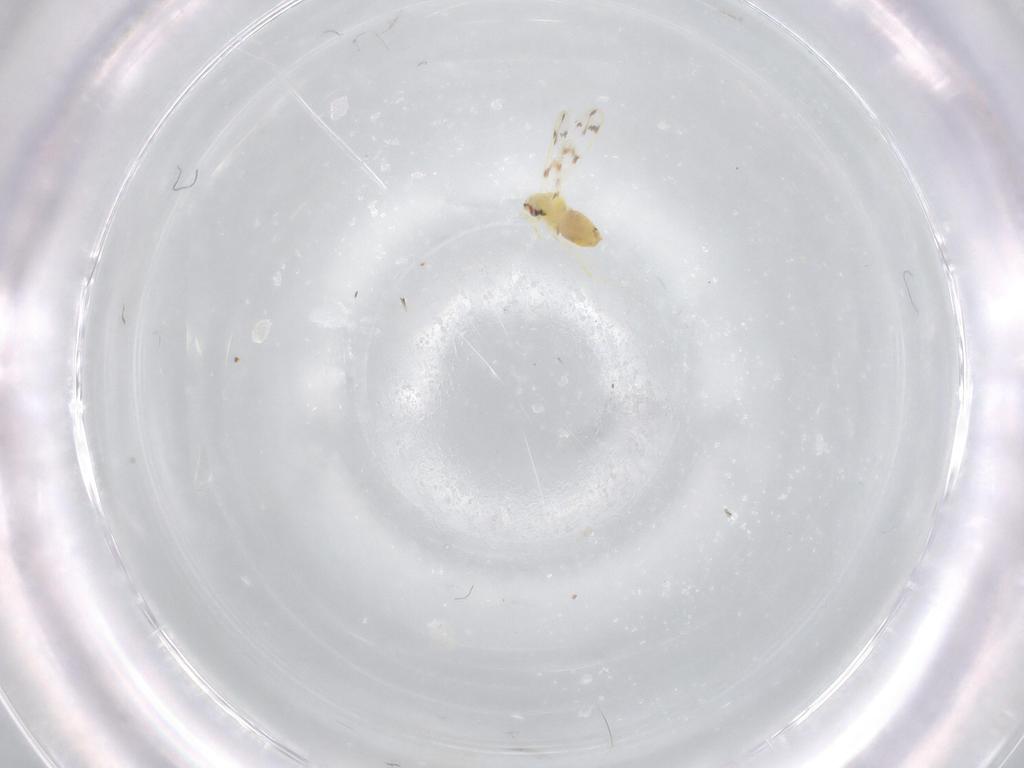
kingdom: Animalia
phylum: Arthropoda
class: Insecta
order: Hemiptera
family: Aleyrodidae
